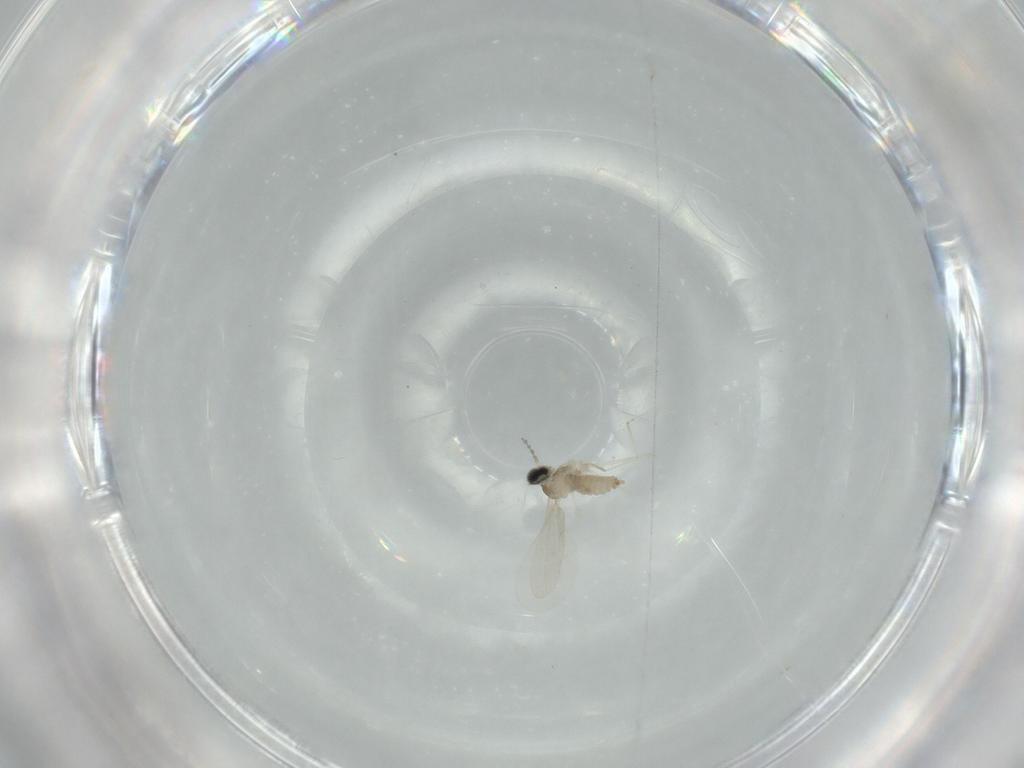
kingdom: Animalia
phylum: Arthropoda
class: Insecta
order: Diptera
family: Cecidomyiidae
